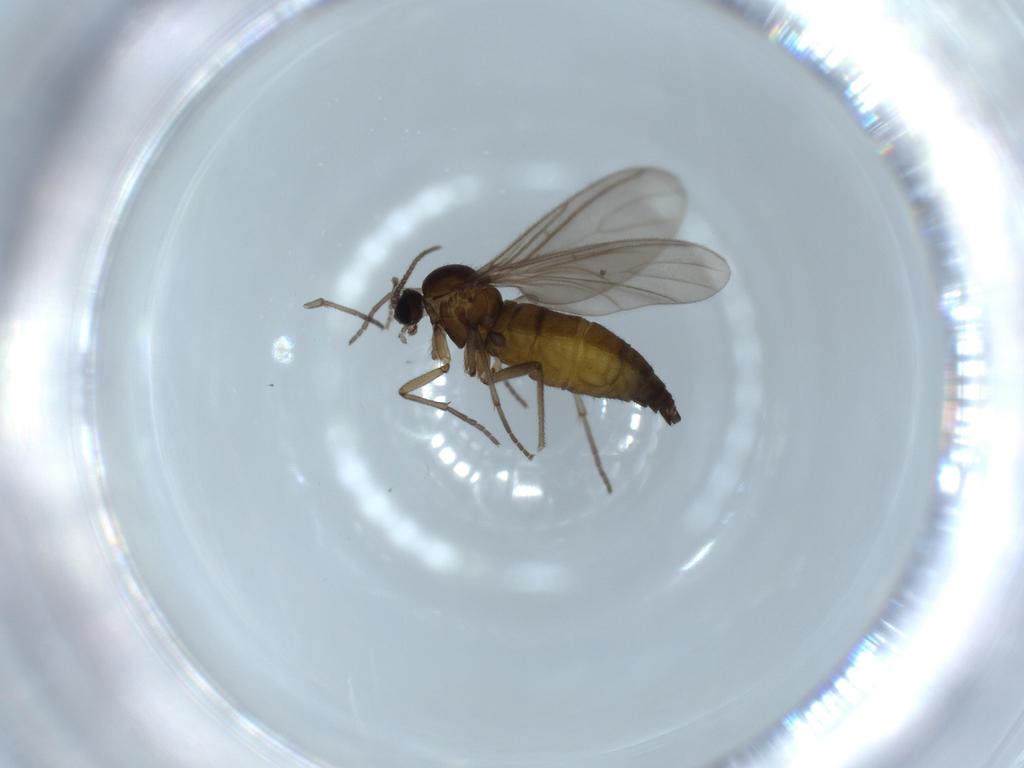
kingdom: Animalia
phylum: Arthropoda
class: Insecta
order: Diptera
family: Sciaridae
